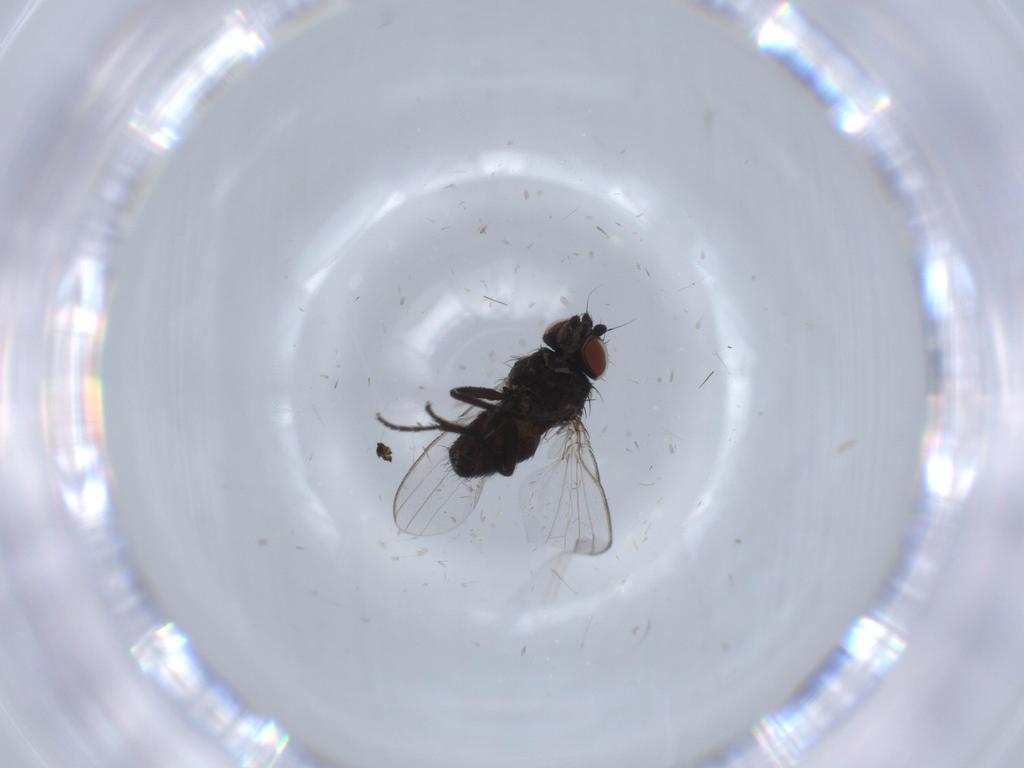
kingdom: Animalia
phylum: Arthropoda
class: Insecta
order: Diptera
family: Milichiidae
